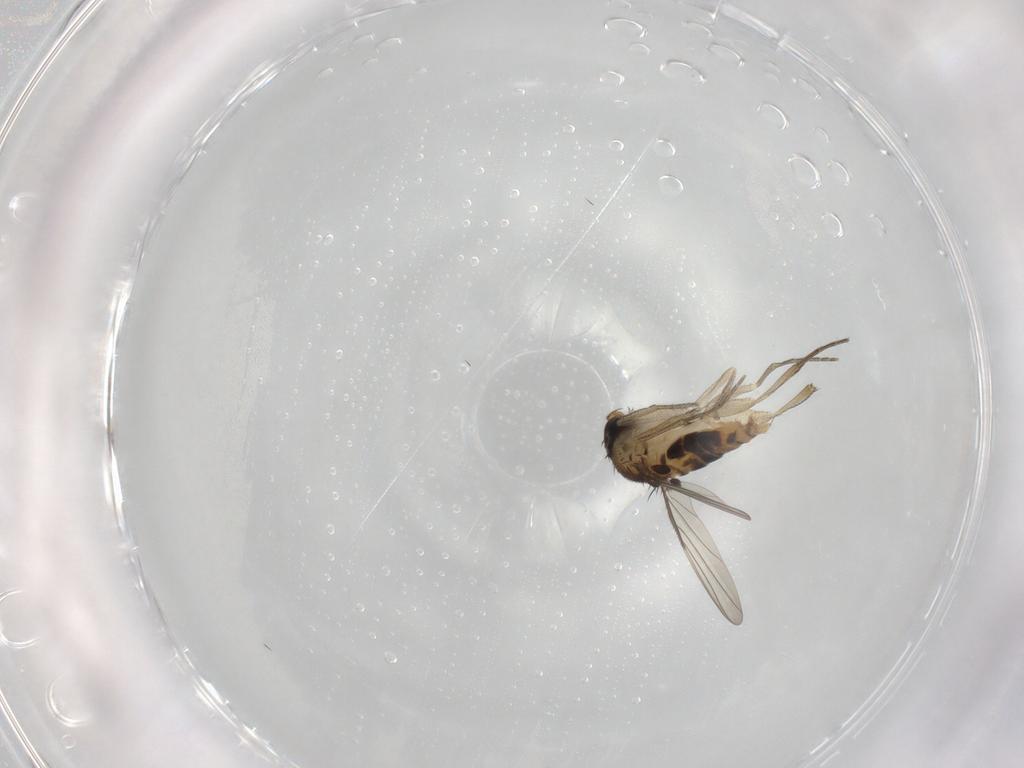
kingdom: Animalia
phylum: Arthropoda
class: Insecta
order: Diptera
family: Phoridae
